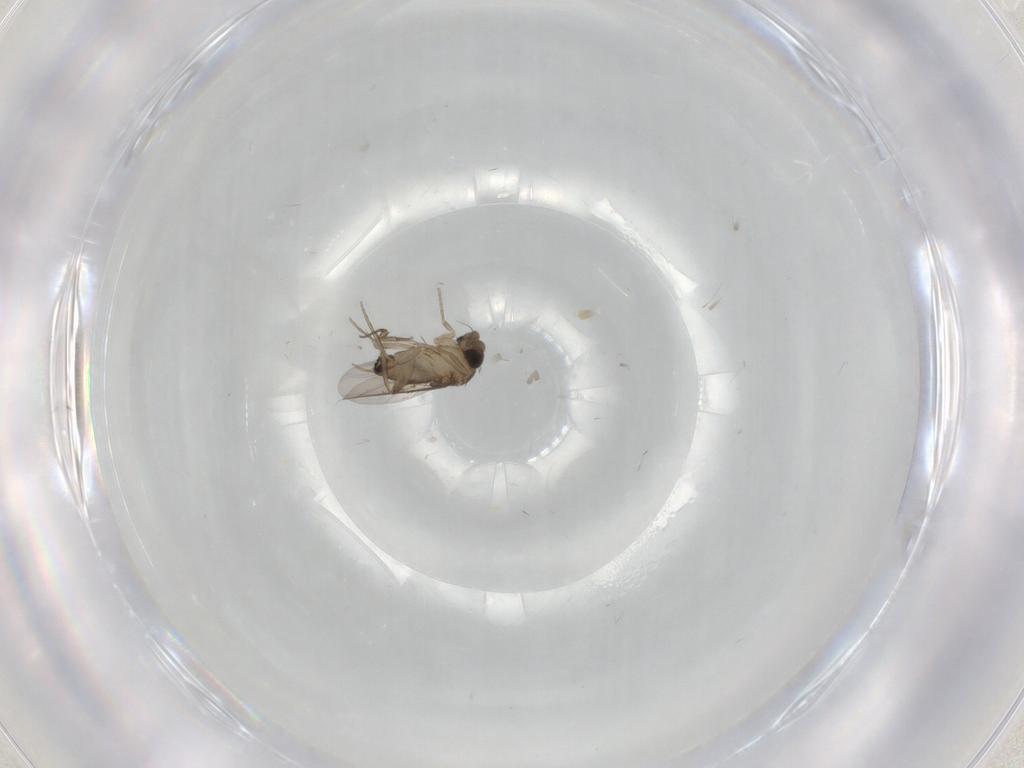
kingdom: Animalia
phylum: Arthropoda
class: Insecta
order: Diptera
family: Phoridae
